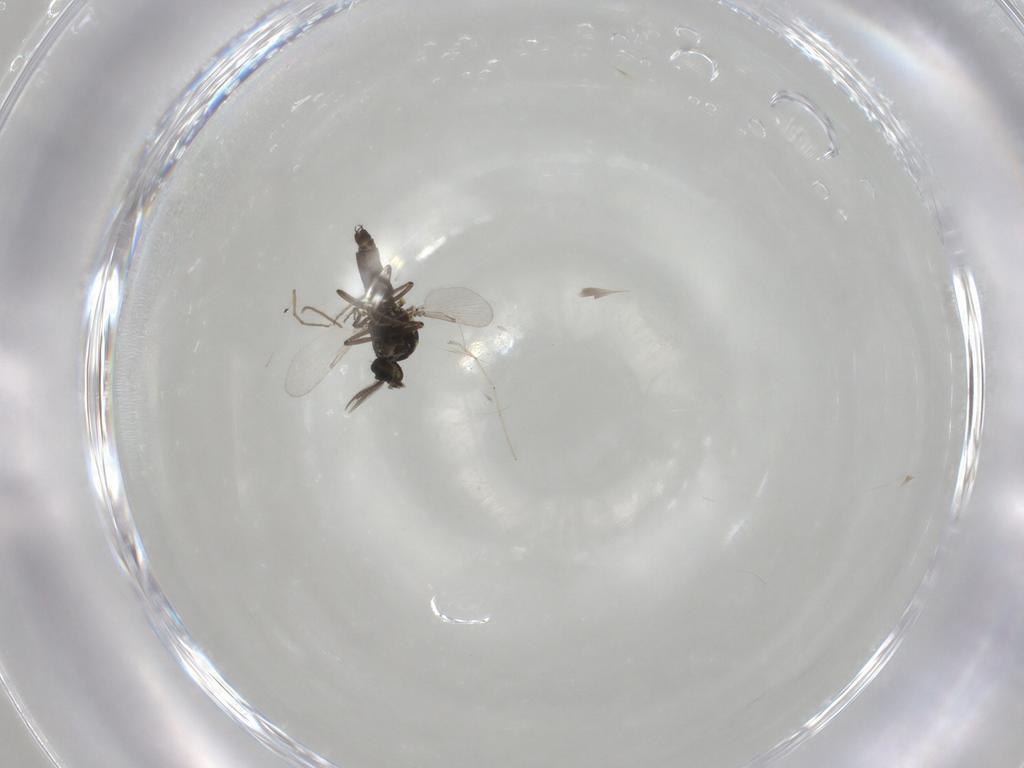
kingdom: Animalia
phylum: Arthropoda
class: Insecta
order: Diptera
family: Ceratopogonidae
